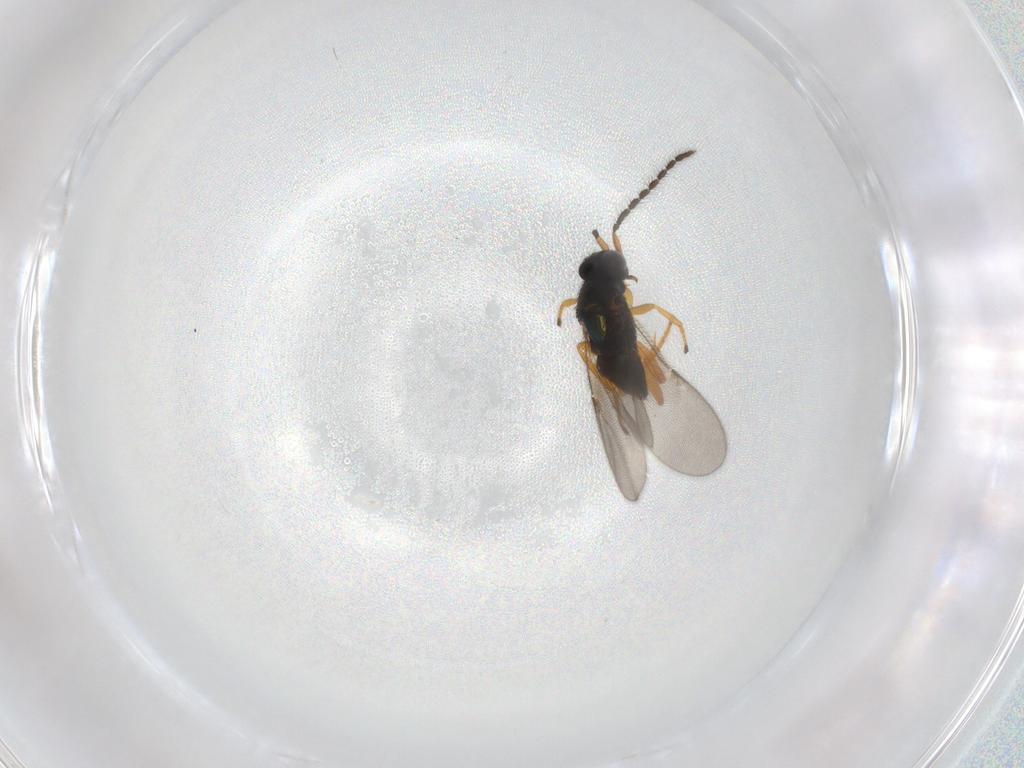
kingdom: Animalia
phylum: Arthropoda
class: Insecta
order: Hymenoptera
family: Encyrtidae
